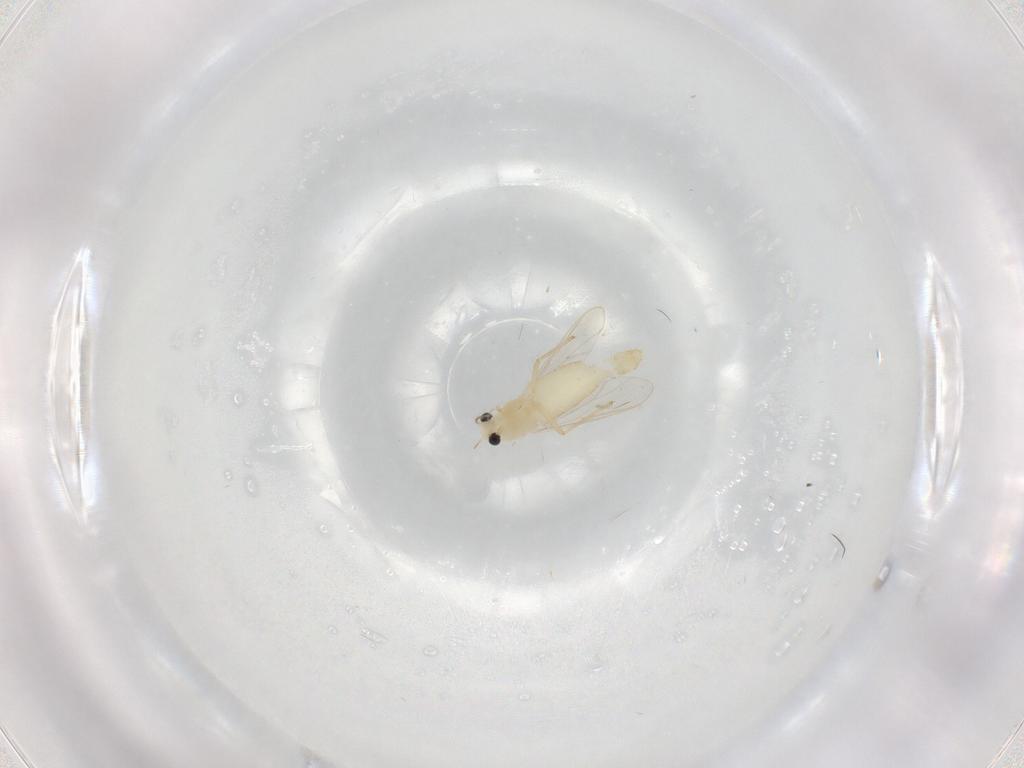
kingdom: Animalia
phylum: Arthropoda
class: Insecta
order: Diptera
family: Chironomidae
